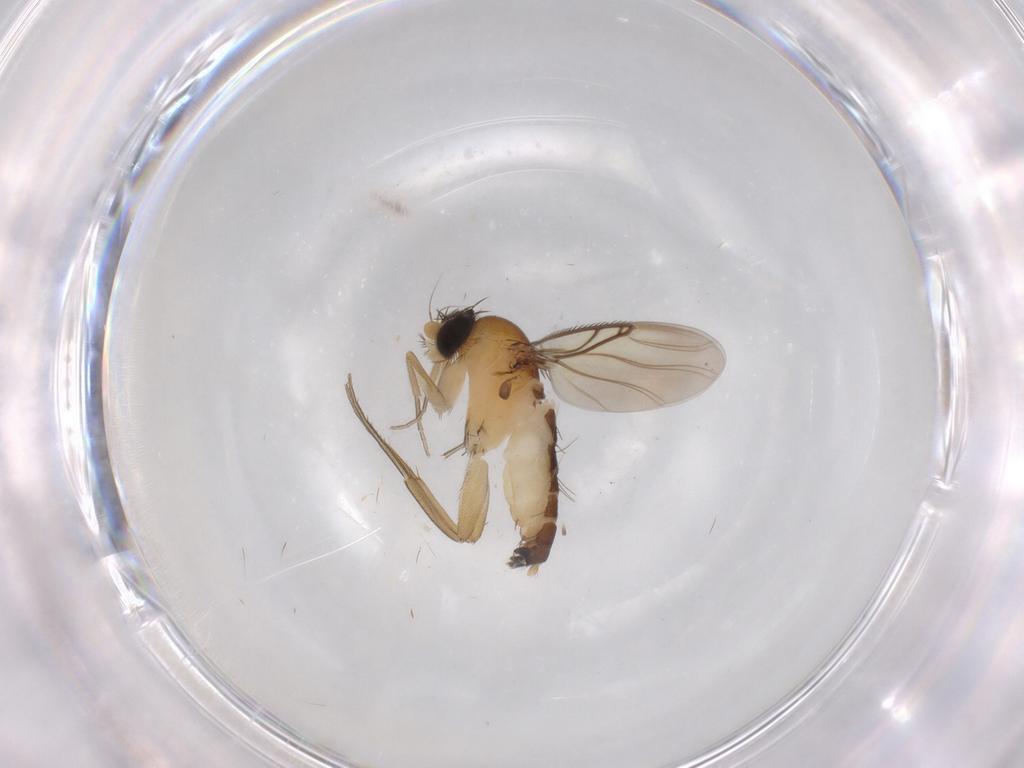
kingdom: Animalia
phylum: Arthropoda
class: Insecta
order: Diptera
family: Phoridae
